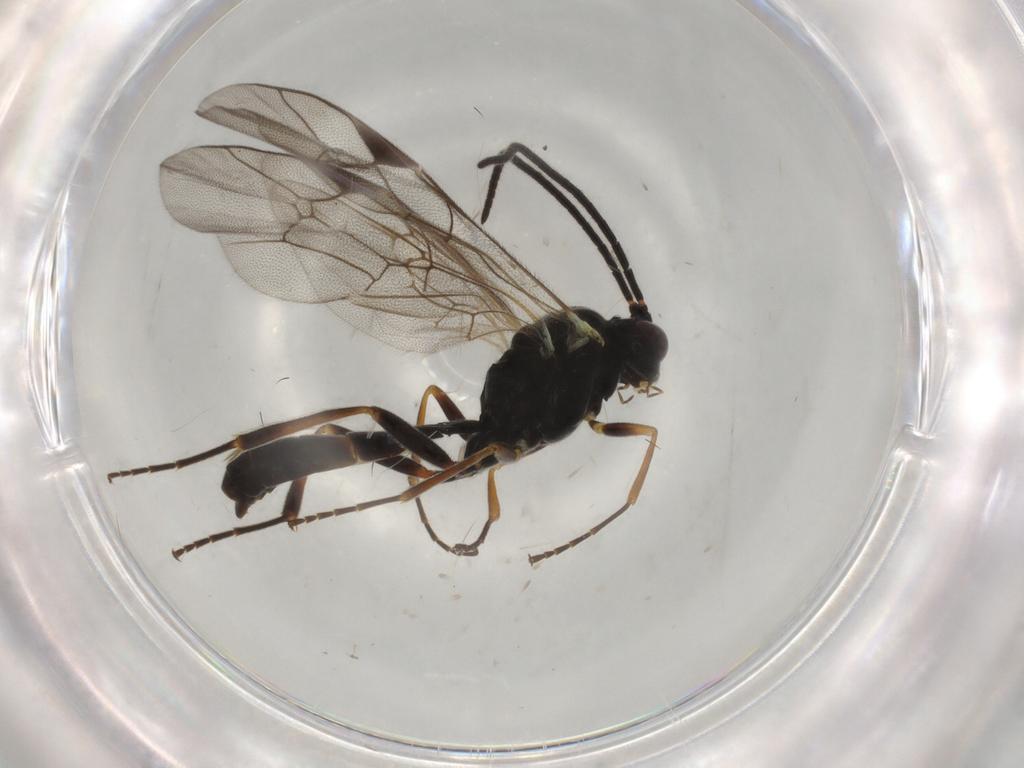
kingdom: Animalia
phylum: Arthropoda
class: Insecta
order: Hymenoptera
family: Ichneumonidae
